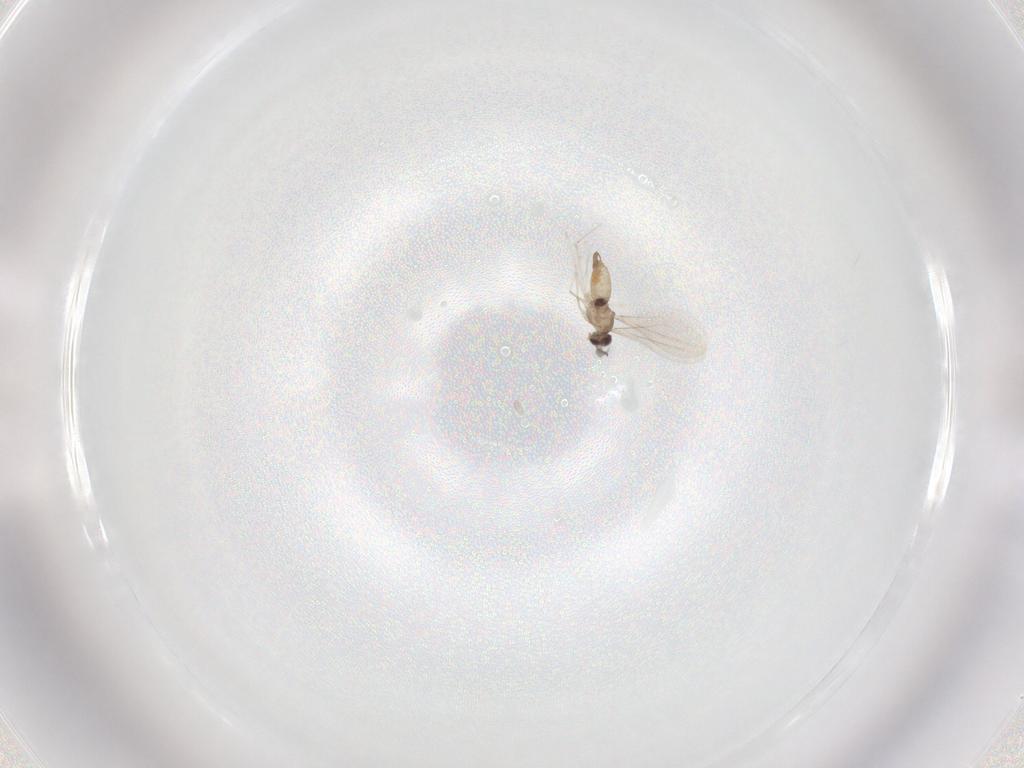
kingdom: Animalia
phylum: Arthropoda
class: Insecta
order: Diptera
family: Cecidomyiidae
